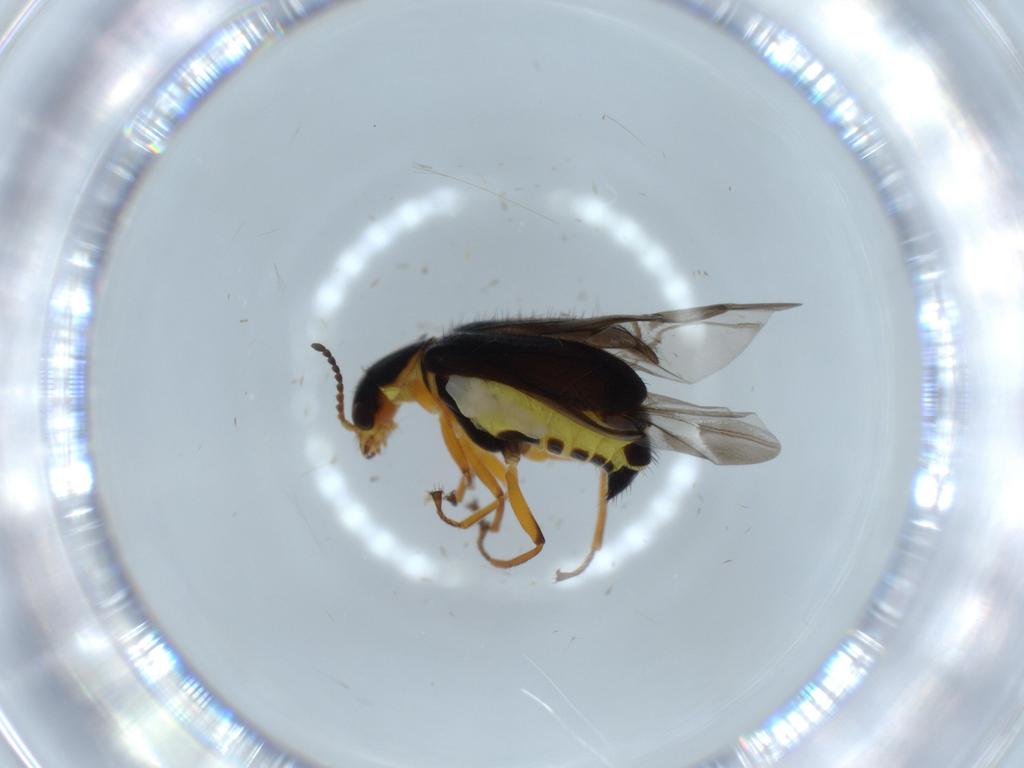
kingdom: Animalia
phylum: Arthropoda
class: Insecta
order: Coleoptera
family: Melyridae
